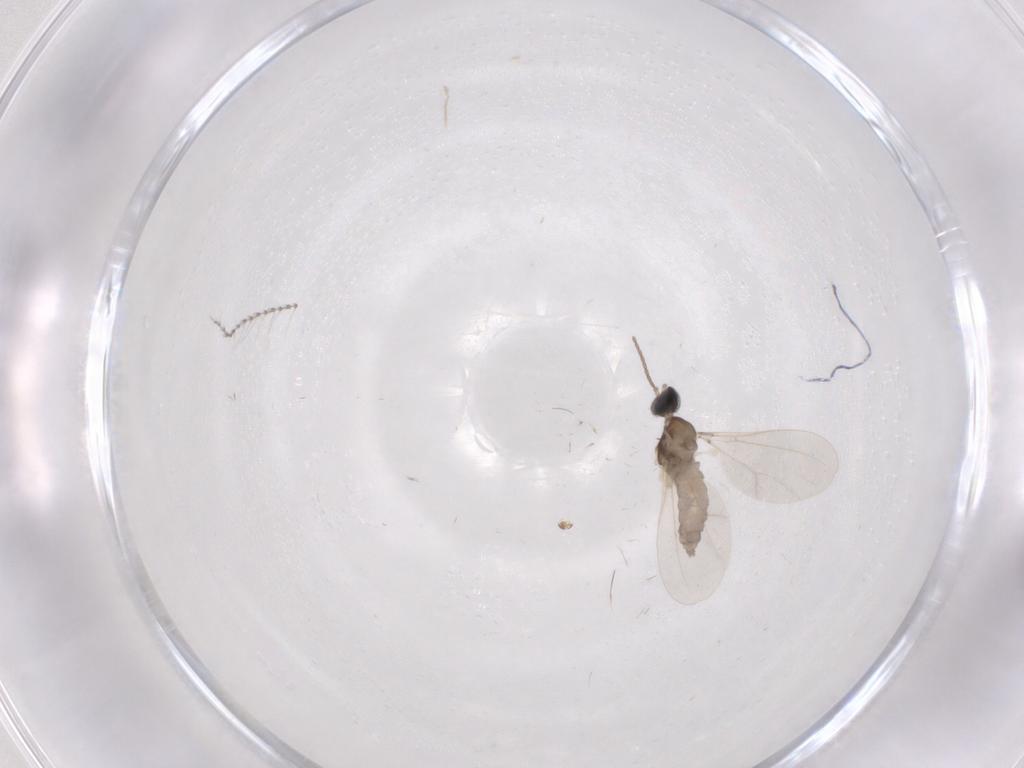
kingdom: Animalia
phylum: Arthropoda
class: Insecta
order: Diptera
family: Cecidomyiidae
